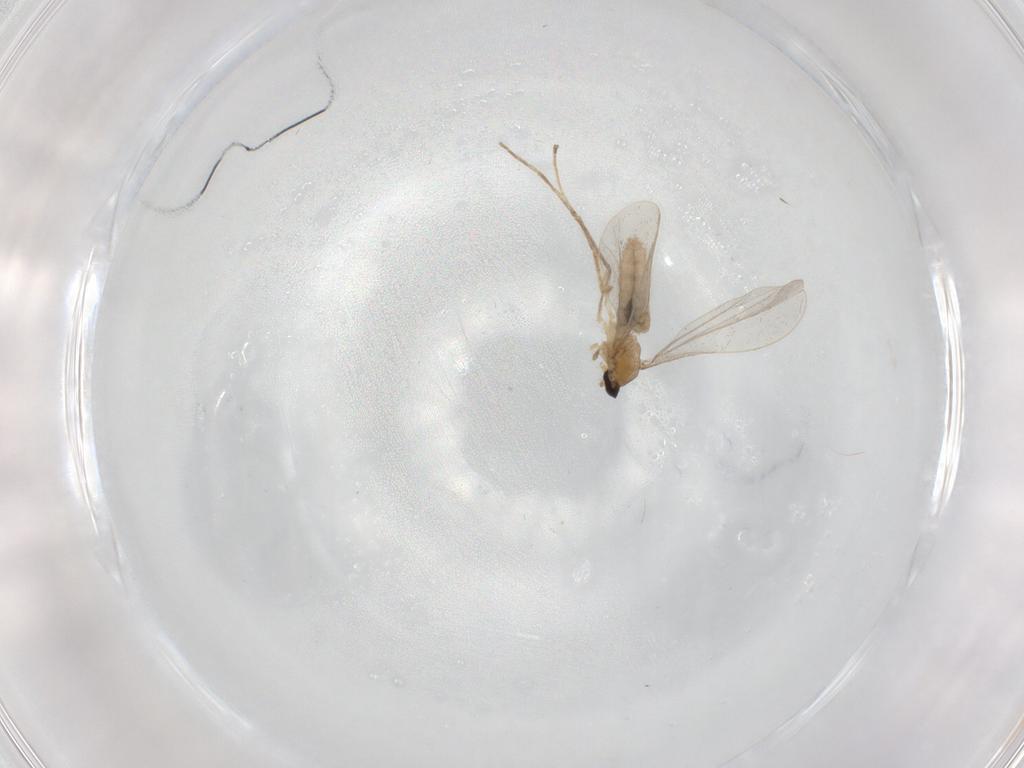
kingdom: Animalia
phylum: Arthropoda
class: Insecta
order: Diptera
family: Cecidomyiidae
